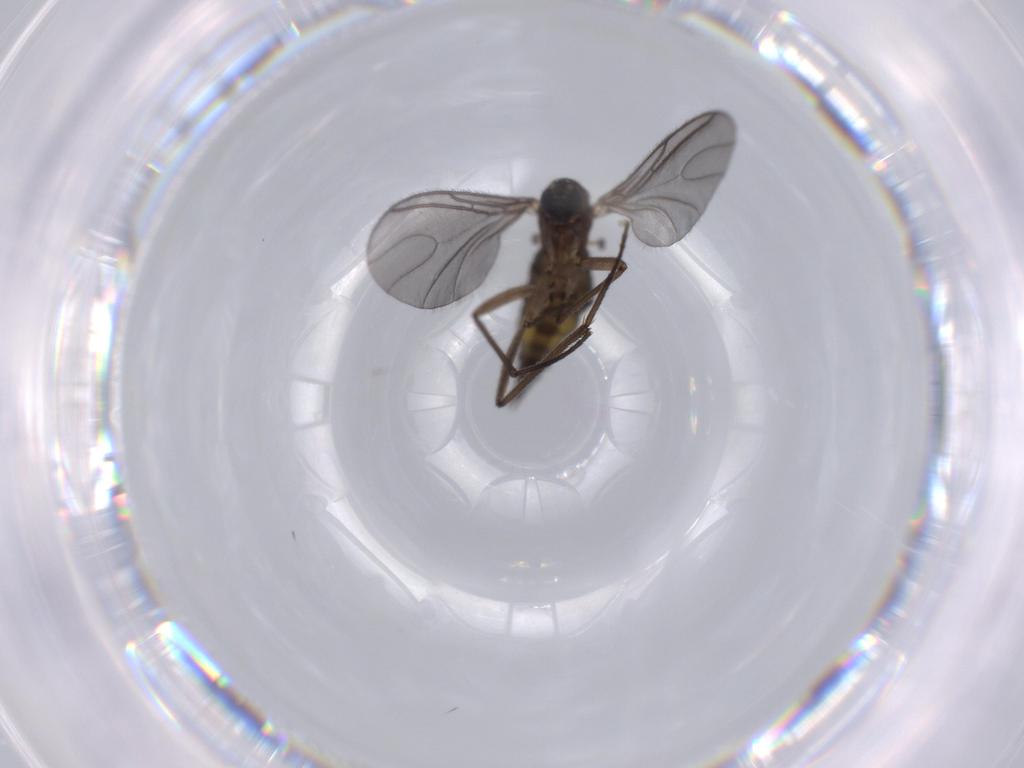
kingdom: Animalia
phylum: Arthropoda
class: Insecta
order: Diptera
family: Sciaridae
